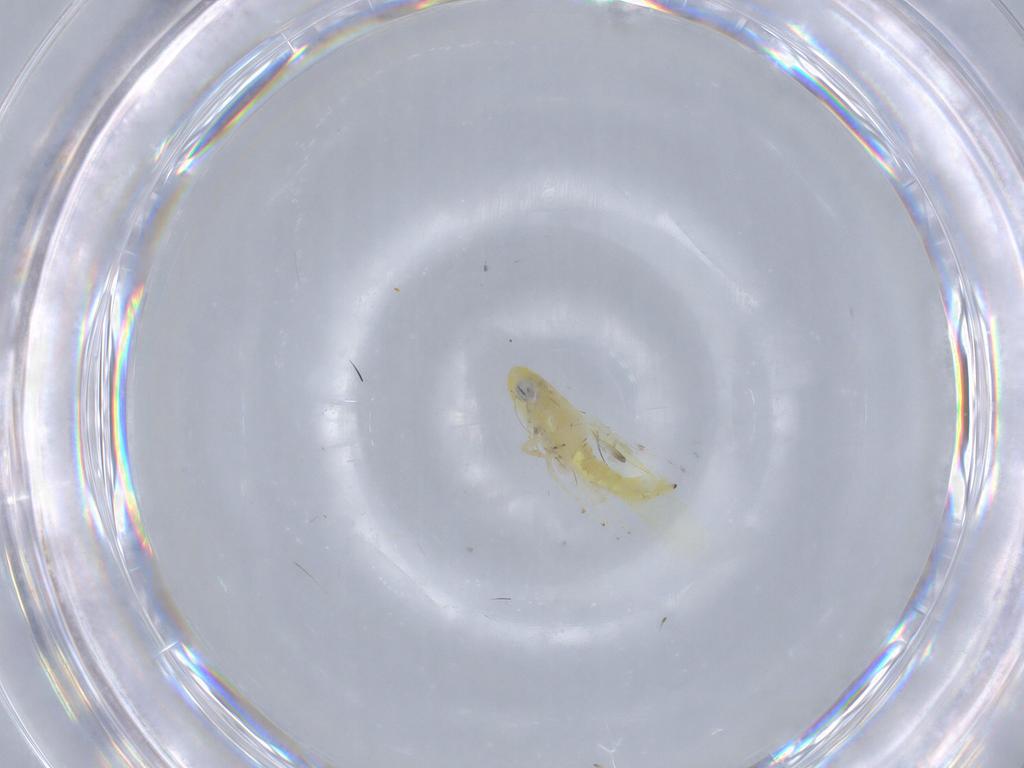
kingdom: Animalia
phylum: Arthropoda
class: Insecta
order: Hemiptera
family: Cicadellidae
